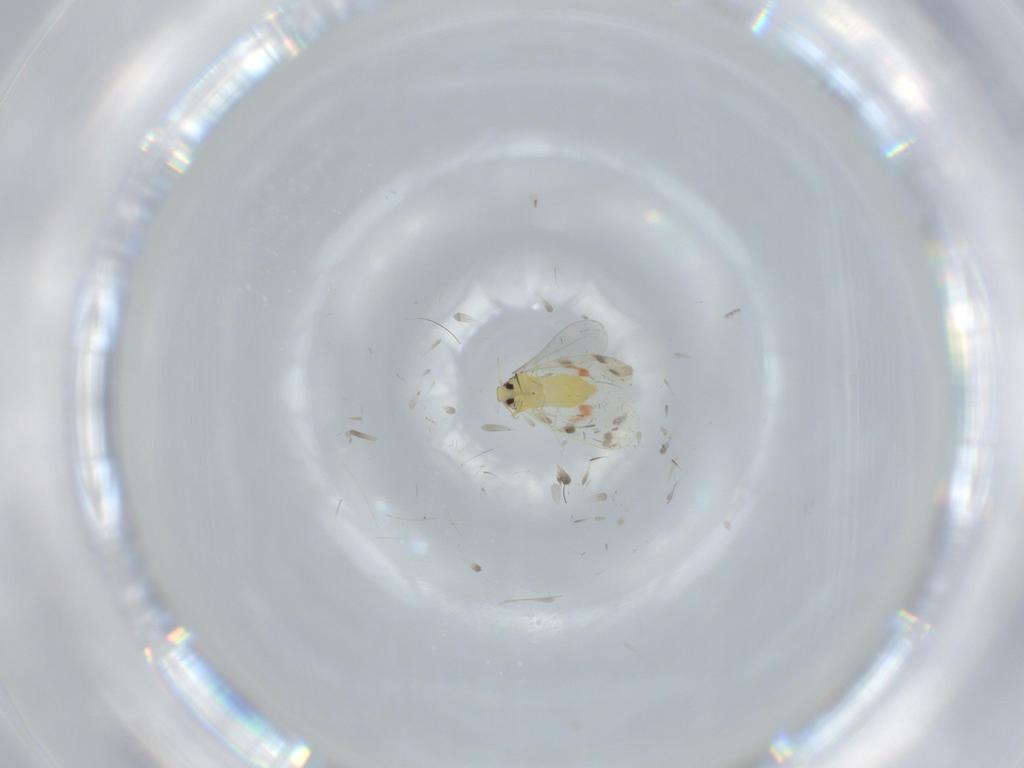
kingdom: Animalia
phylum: Arthropoda
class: Insecta
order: Hemiptera
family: Aleyrodidae
